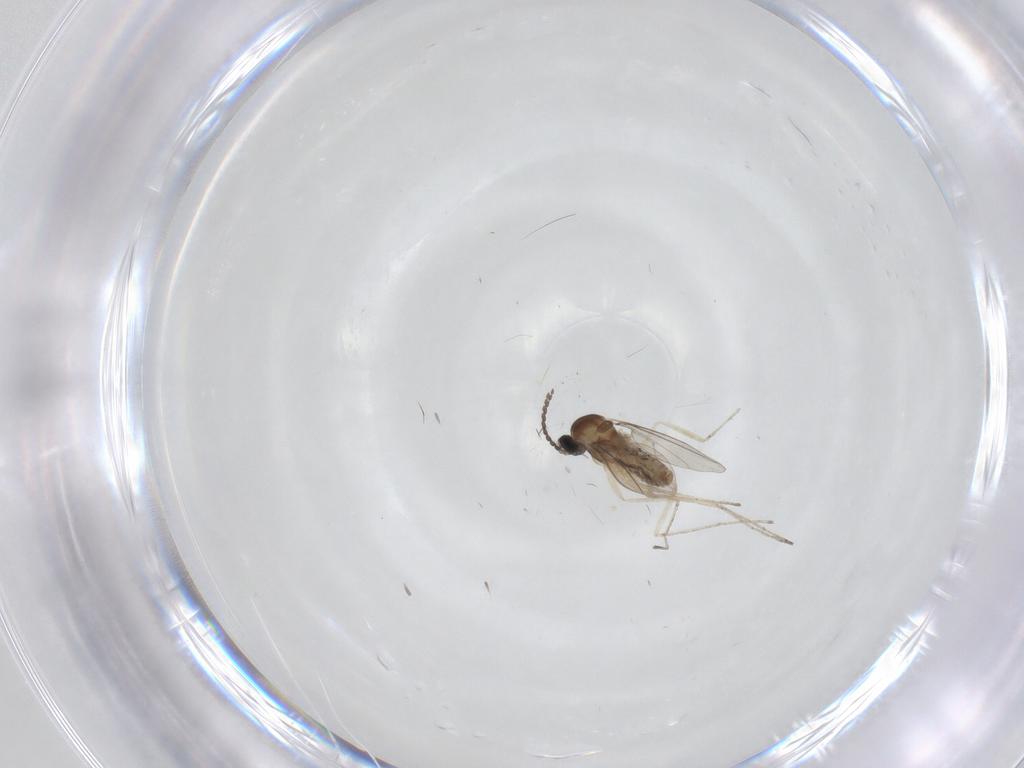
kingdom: Animalia
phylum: Arthropoda
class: Insecta
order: Diptera
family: Cecidomyiidae
